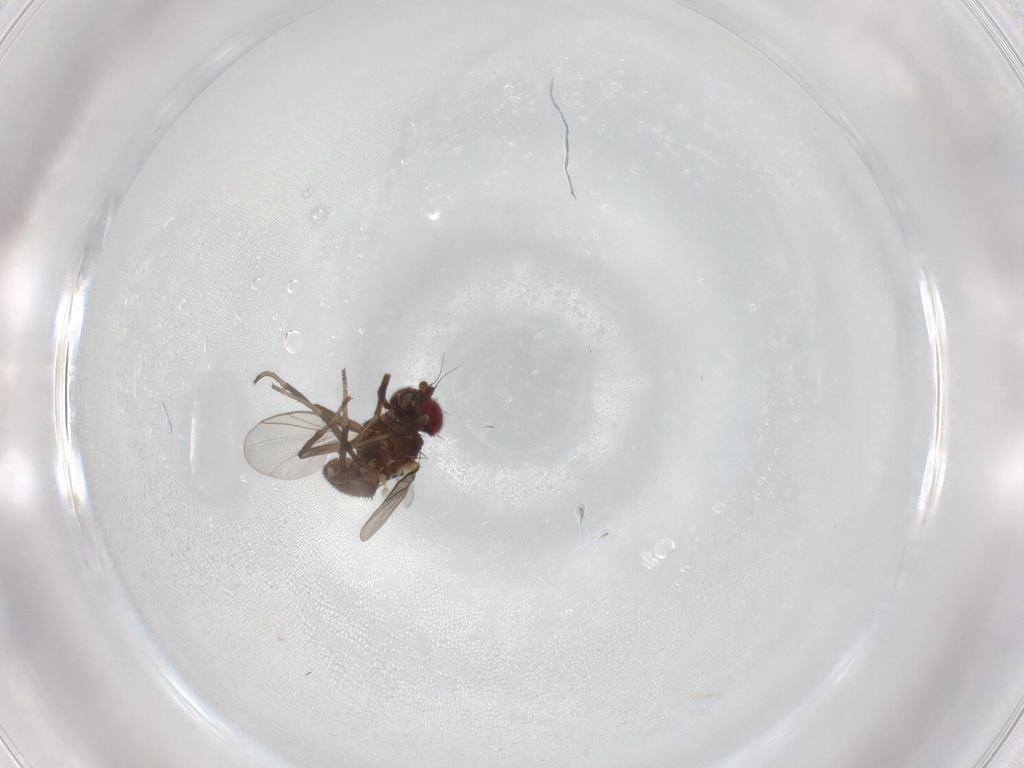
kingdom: Animalia
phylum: Arthropoda
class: Insecta
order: Diptera
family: Agromyzidae
